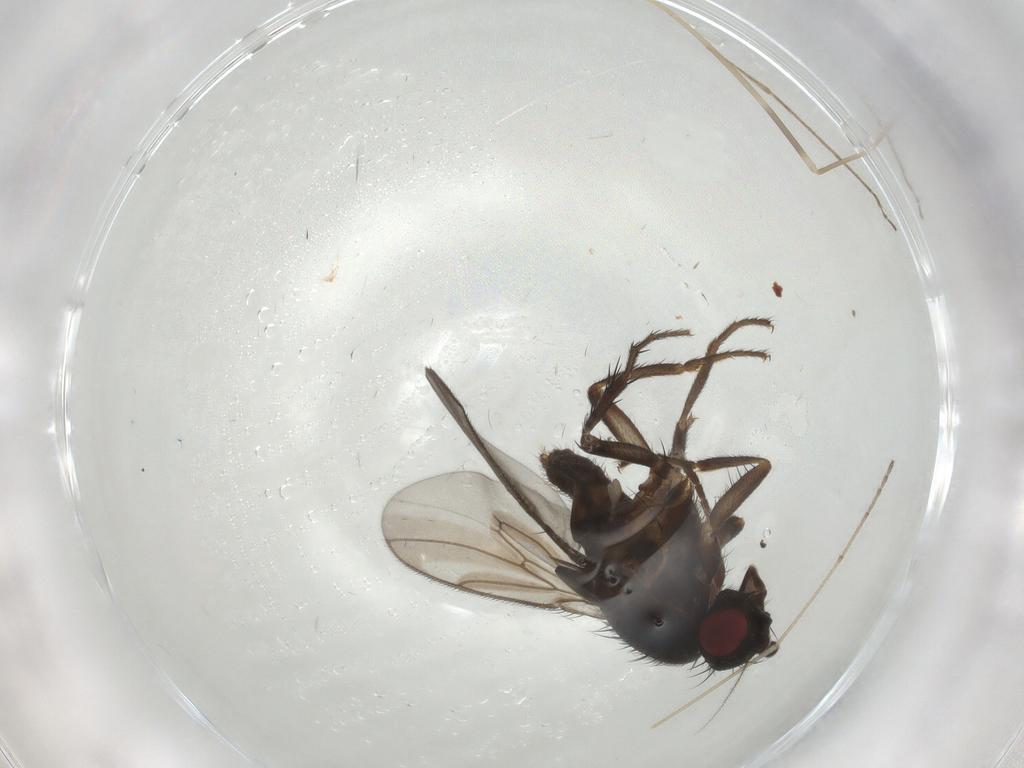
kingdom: Animalia
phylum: Arthropoda
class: Insecta
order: Diptera
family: Sphaeroceridae
